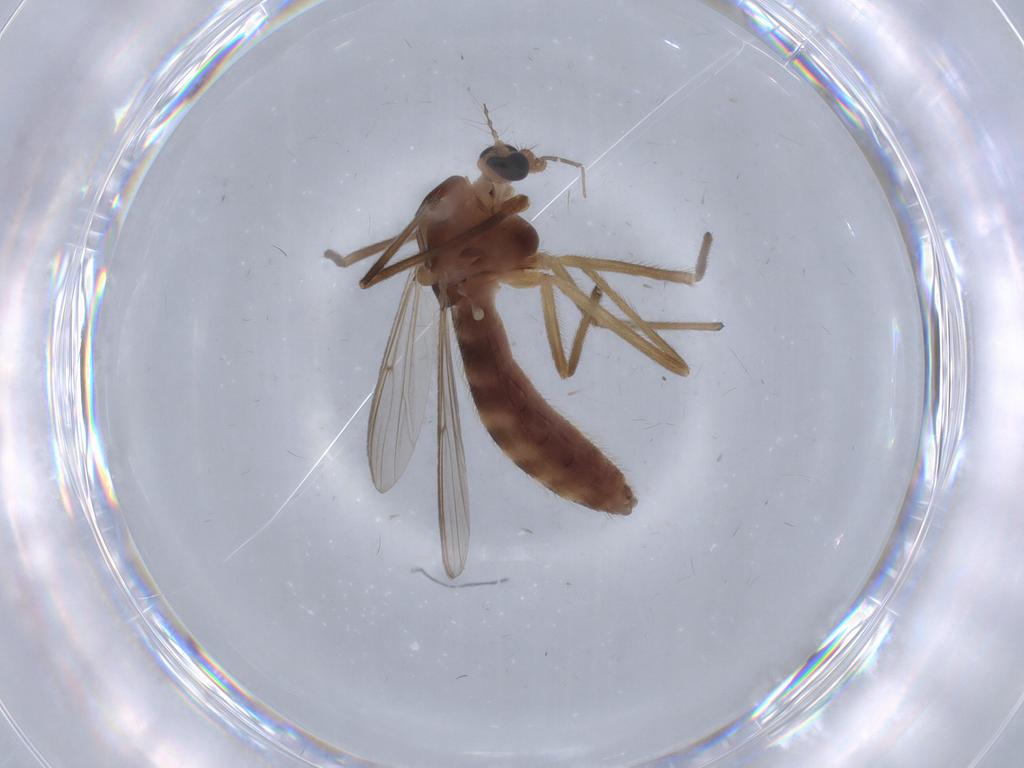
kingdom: Animalia
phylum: Arthropoda
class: Insecta
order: Diptera
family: Chironomidae
